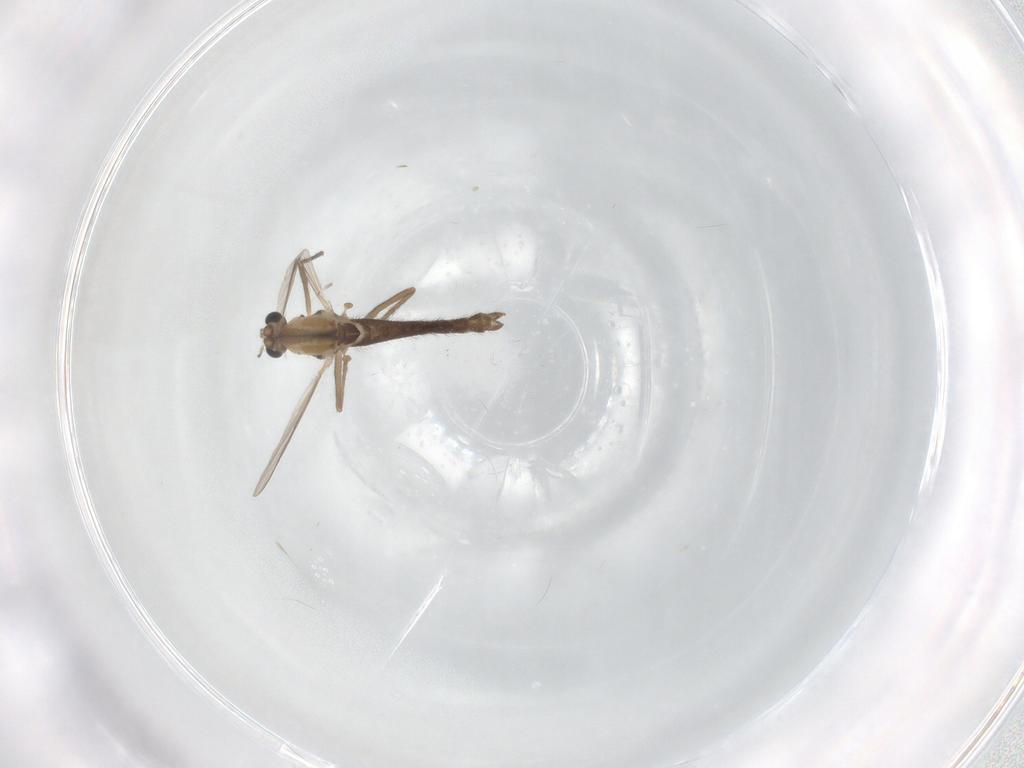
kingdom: Animalia
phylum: Arthropoda
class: Insecta
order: Diptera
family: Chironomidae
